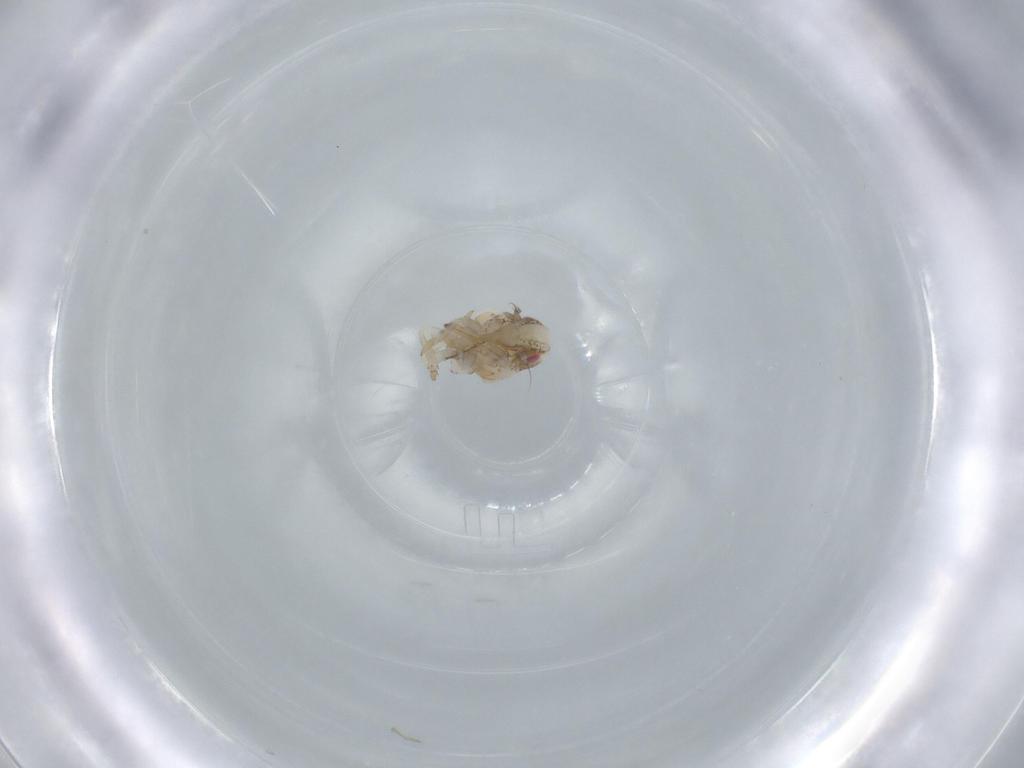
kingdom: Animalia
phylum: Arthropoda
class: Insecta
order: Hemiptera
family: Acanaloniidae
